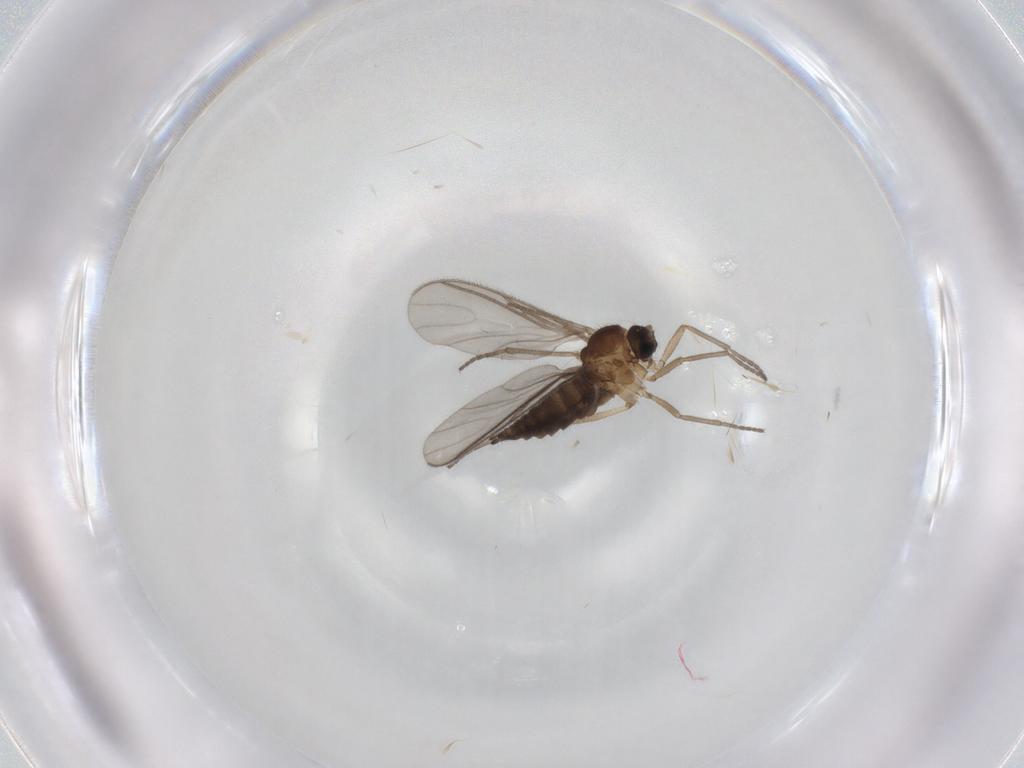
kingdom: Animalia
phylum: Arthropoda
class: Insecta
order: Diptera
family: Sciaridae
